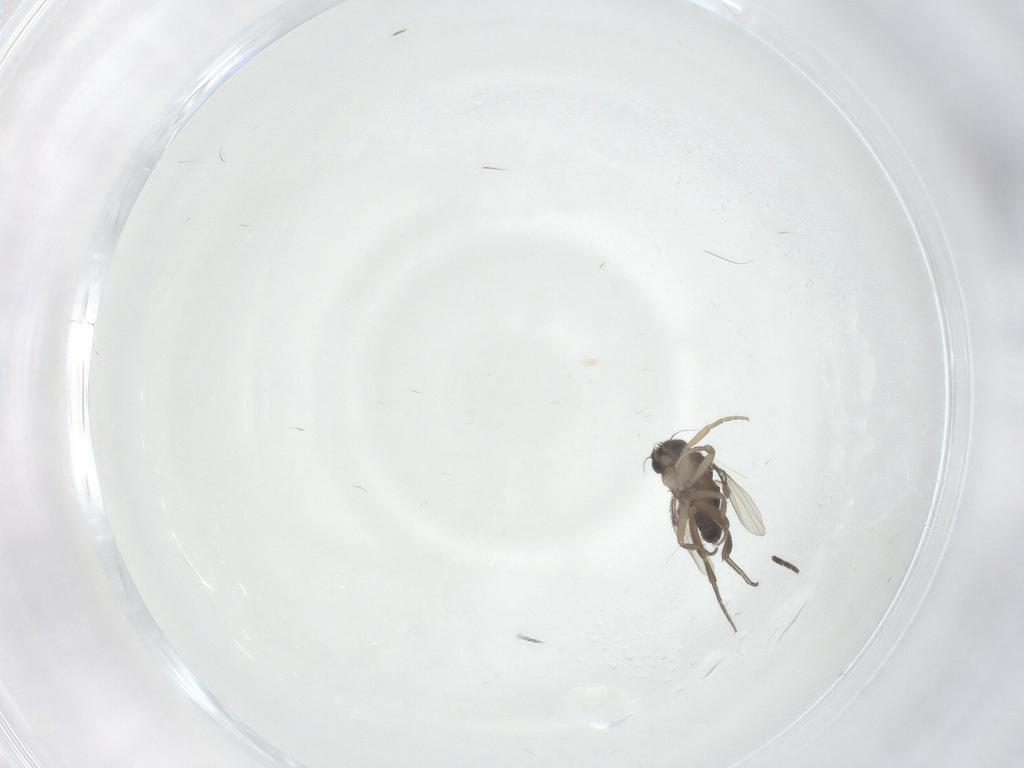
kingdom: Animalia
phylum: Arthropoda
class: Insecta
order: Diptera
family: Phoridae
